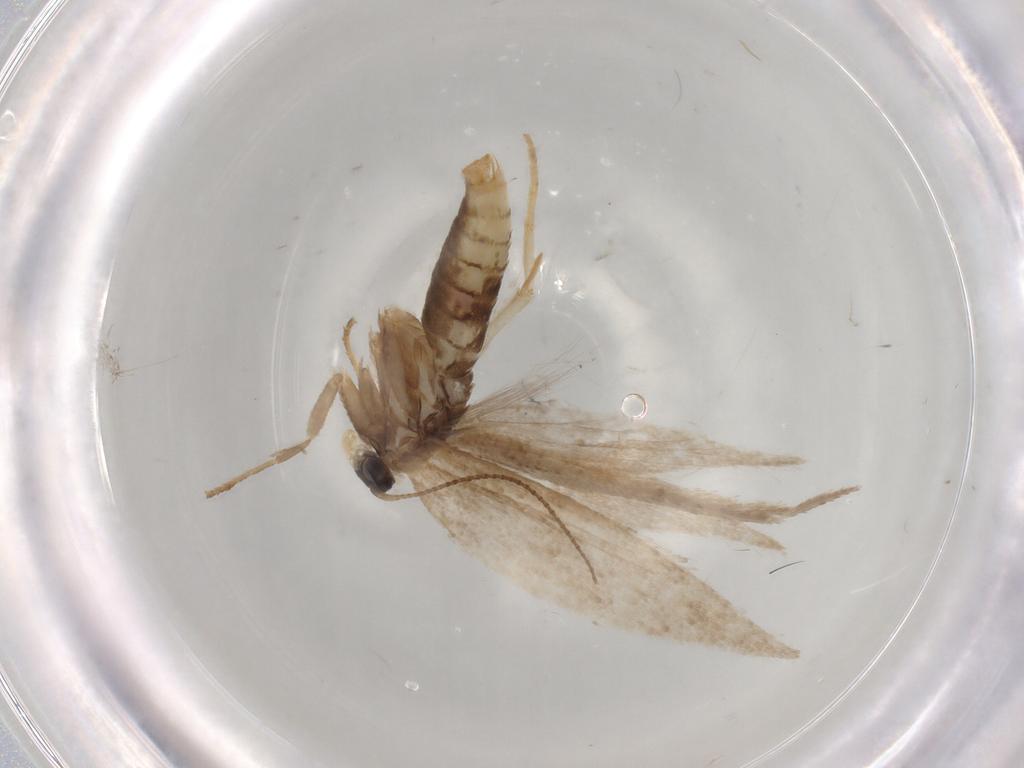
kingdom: Animalia
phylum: Arthropoda
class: Insecta
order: Lepidoptera
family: Nepticulidae
